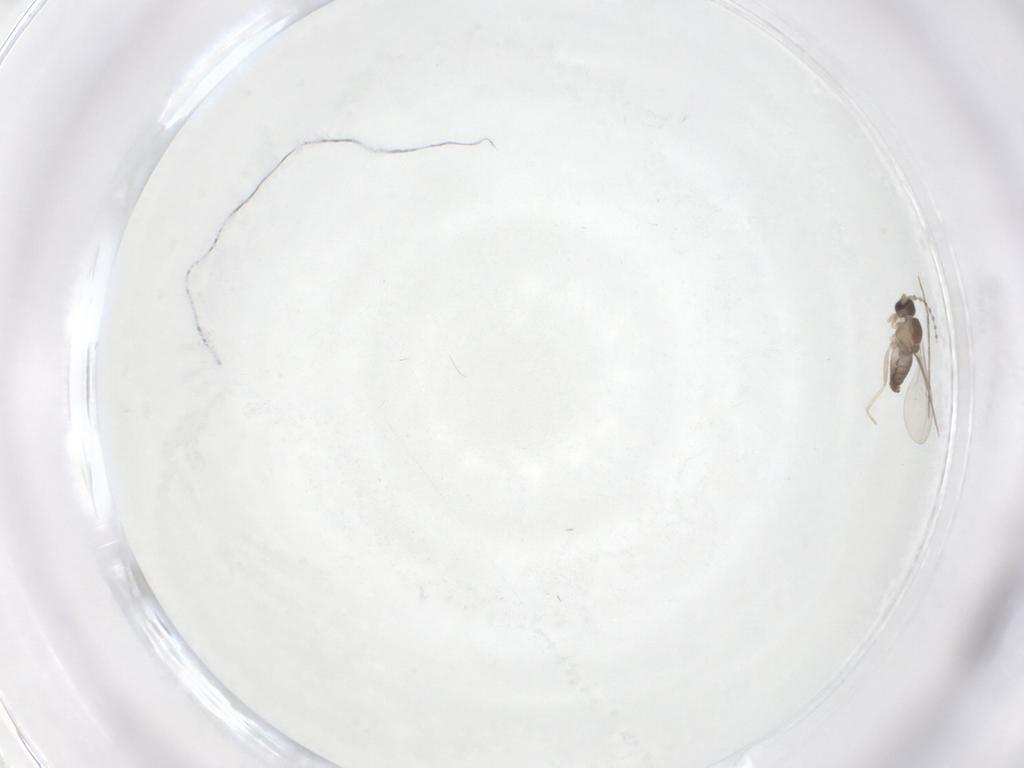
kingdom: Animalia
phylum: Arthropoda
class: Insecta
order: Diptera
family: Cecidomyiidae
